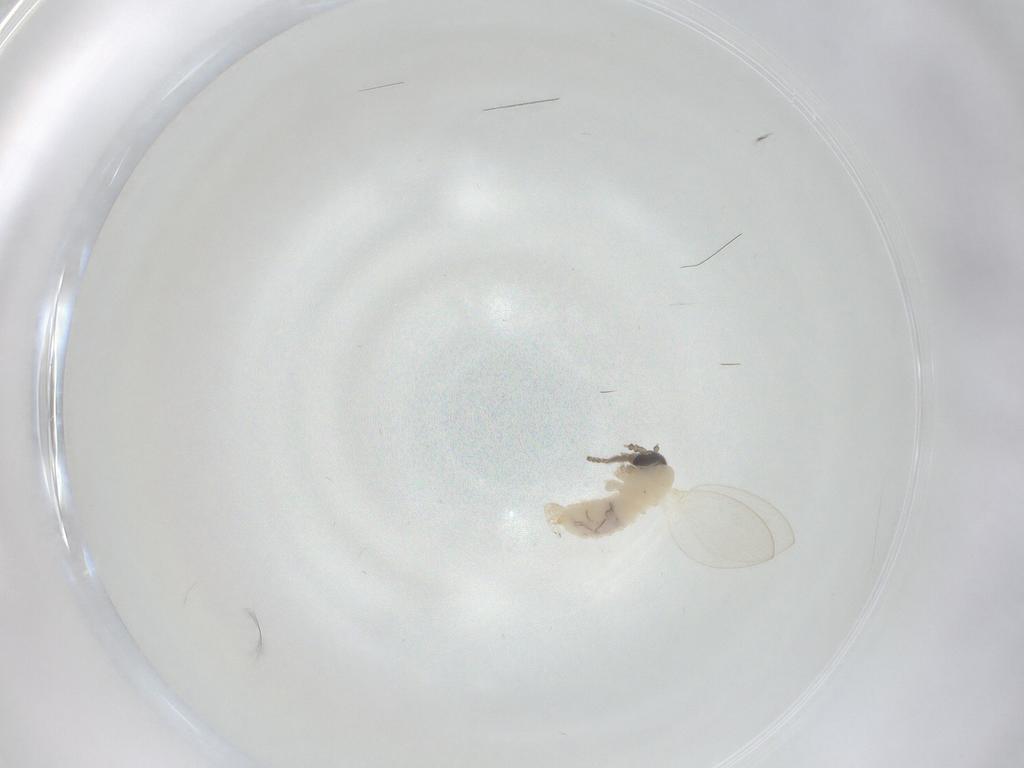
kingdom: Animalia
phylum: Arthropoda
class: Insecta
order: Diptera
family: Psychodidae
